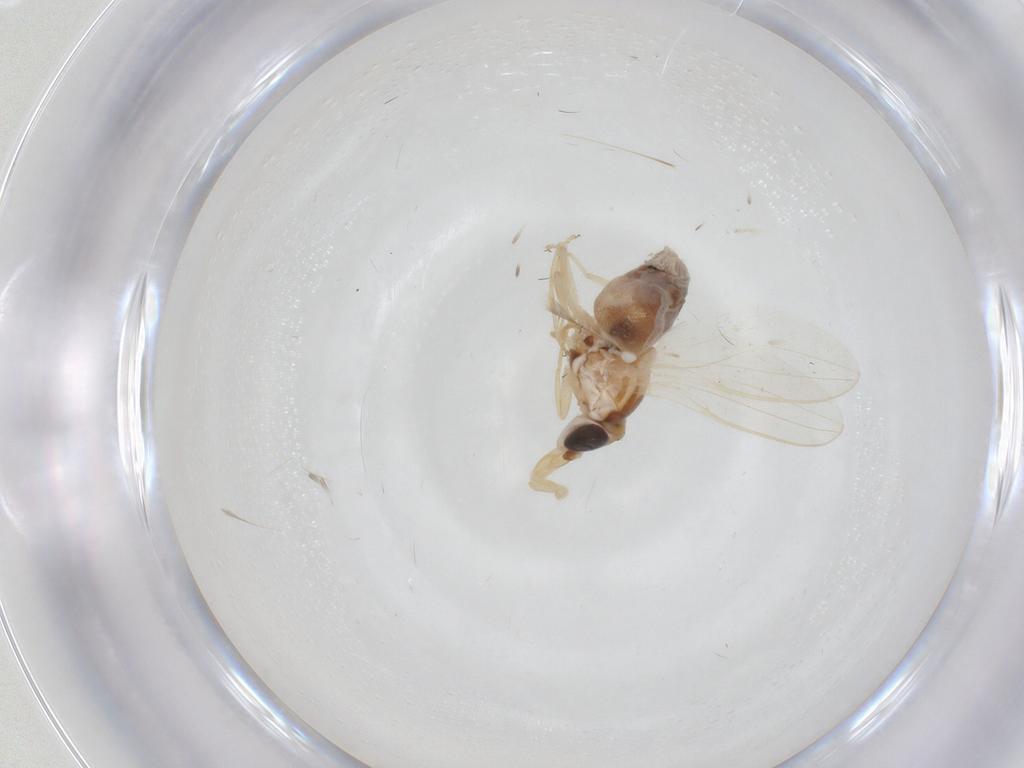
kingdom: Animalia
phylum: Arthropoda
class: Insecta
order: Diptera
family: Chloropidae
